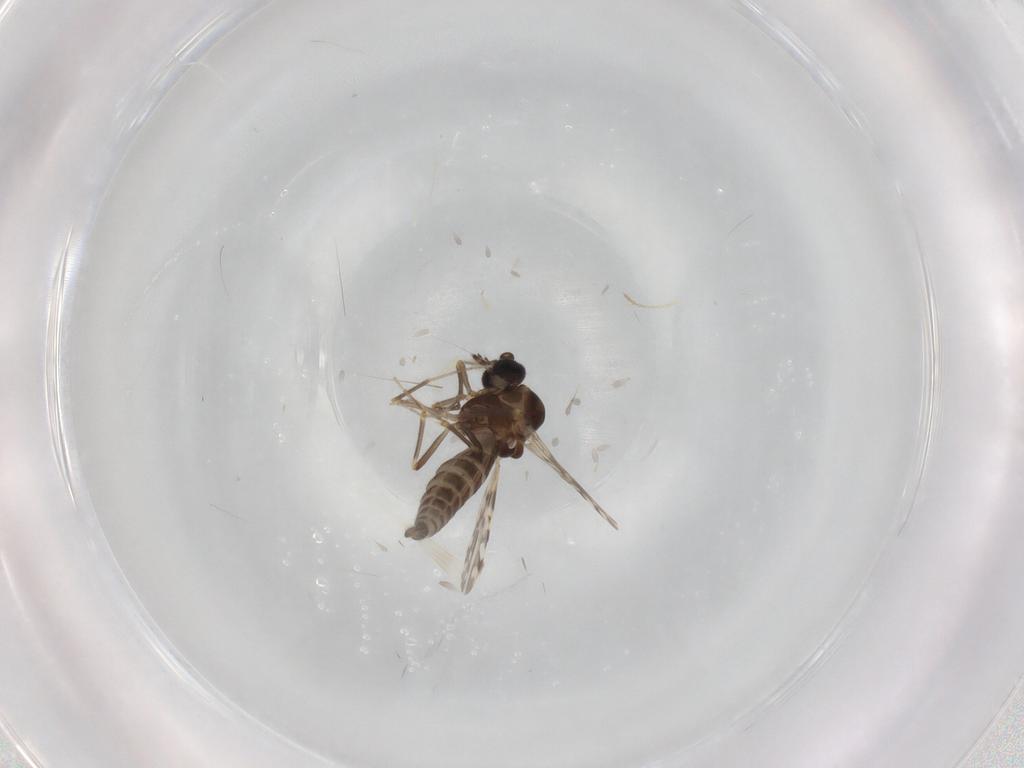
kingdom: Animalia
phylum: Arthropoda
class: Insecta
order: Diptera
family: Ceratopogonidae
